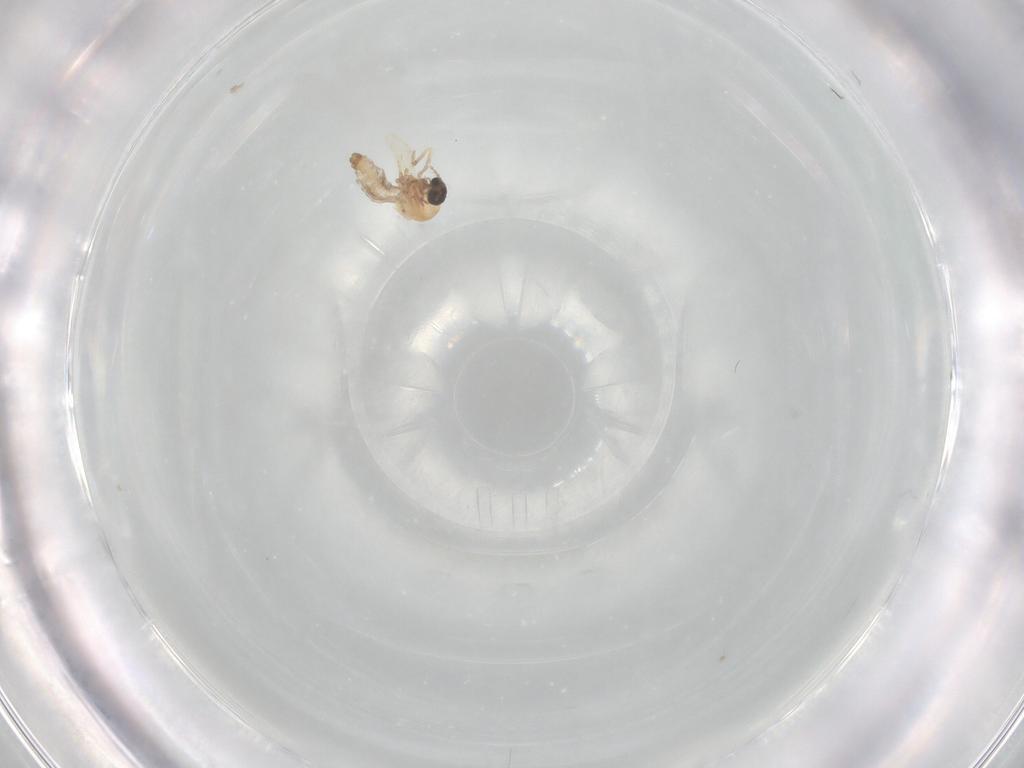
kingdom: Animalia
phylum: Arthropoda
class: Insecta
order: Diptera
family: Ceratopogonidae
